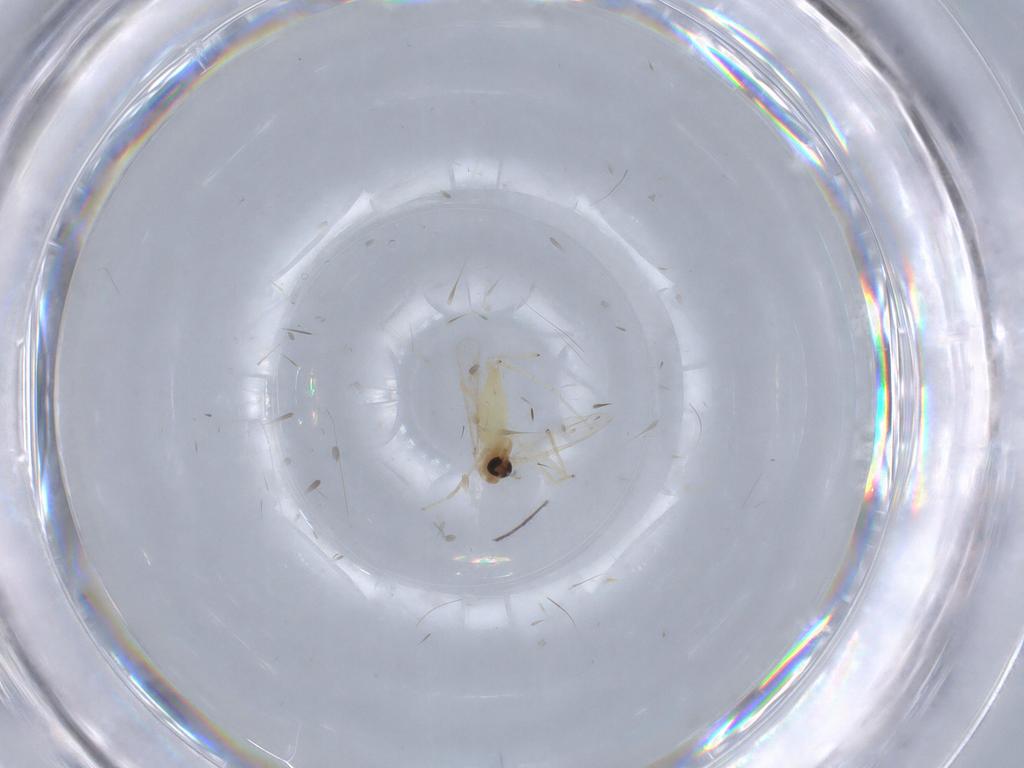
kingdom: Animalia
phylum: Arthropoda
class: Insecta
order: Diptera
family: Chironomidae
